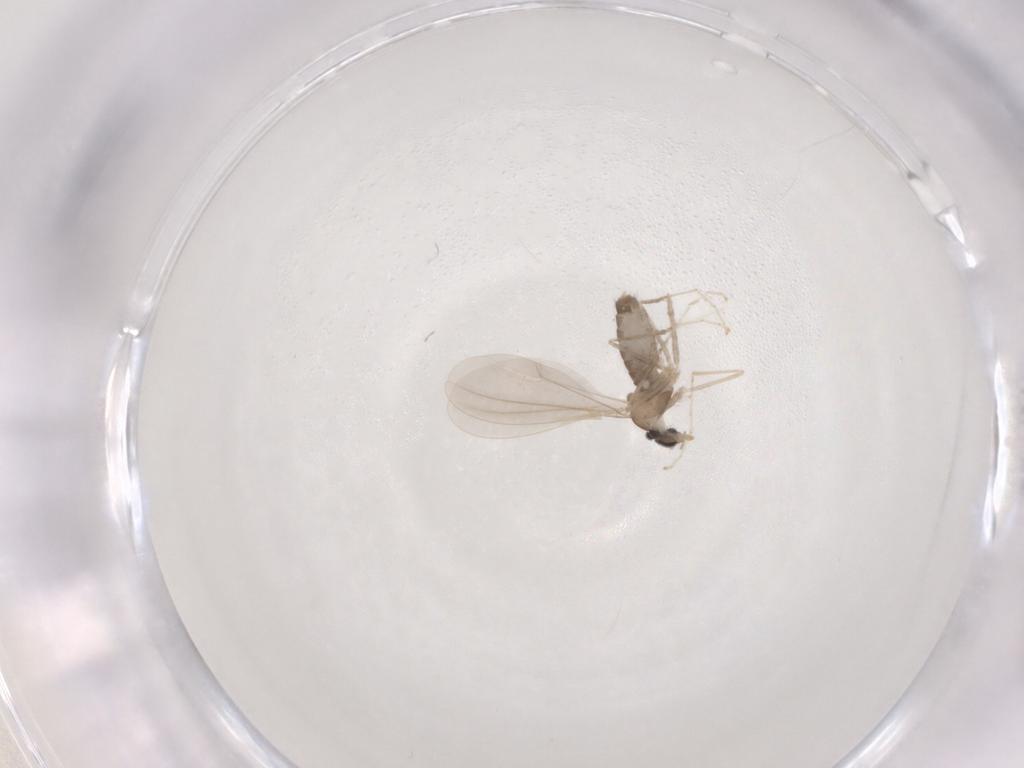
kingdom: Animalia
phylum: Arthropoda
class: Insecta
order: Diptera
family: Cecidomyiidae
